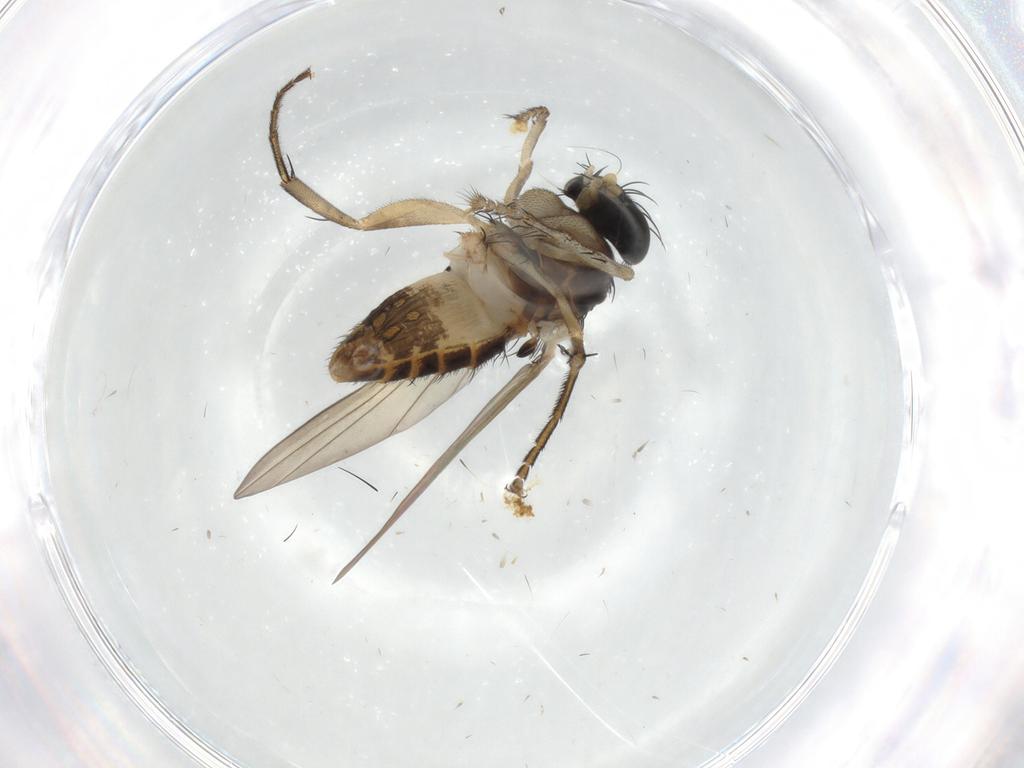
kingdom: Animalia
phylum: Arthropoda
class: Insecta
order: Diptera
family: Phoridae
